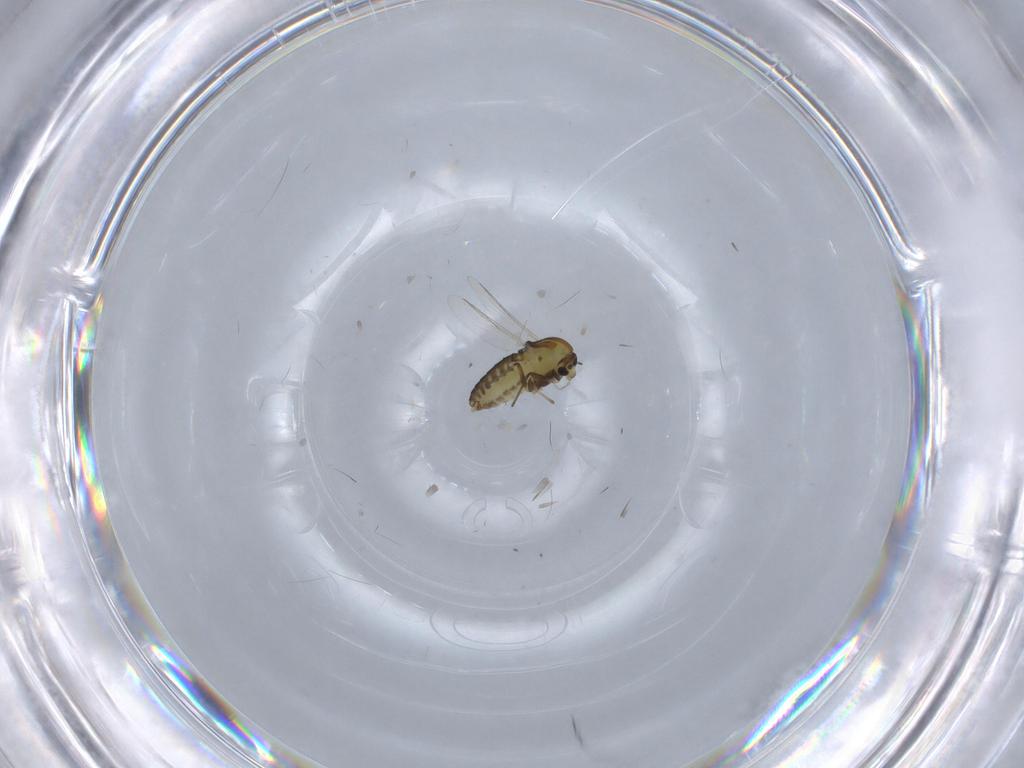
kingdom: Animalia
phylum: Arthropoda
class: Insecta
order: Diptera
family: Chironomidae
